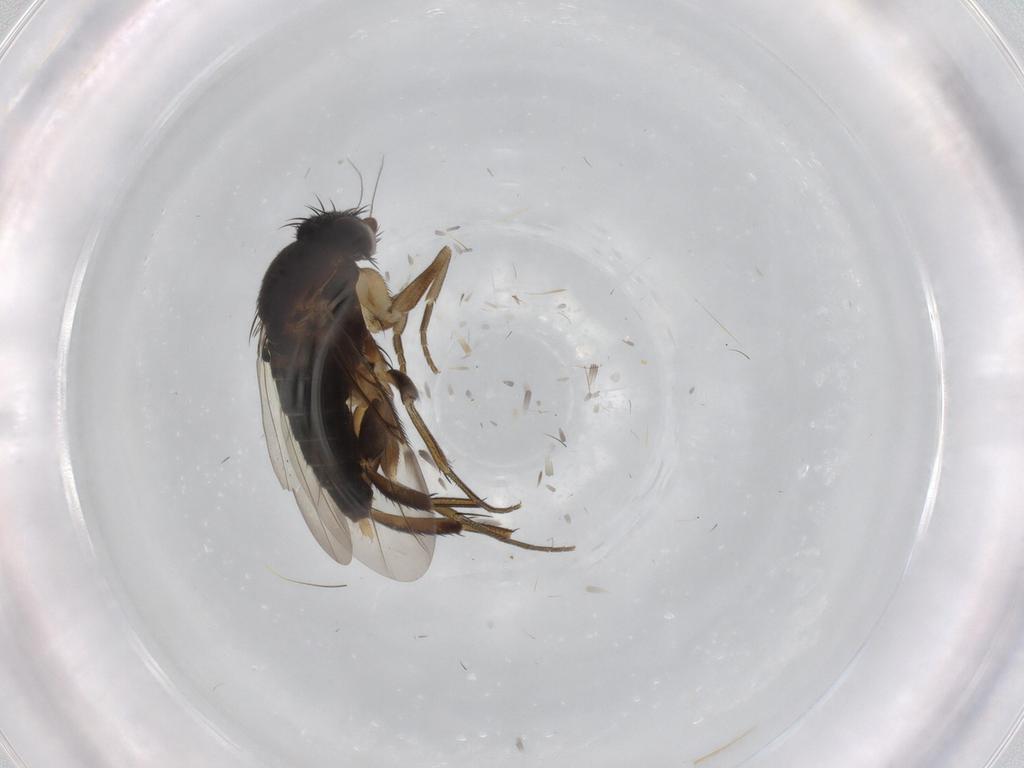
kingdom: Animalia
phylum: Arthropoda
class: Insecta
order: Diptera
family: Phoridae
